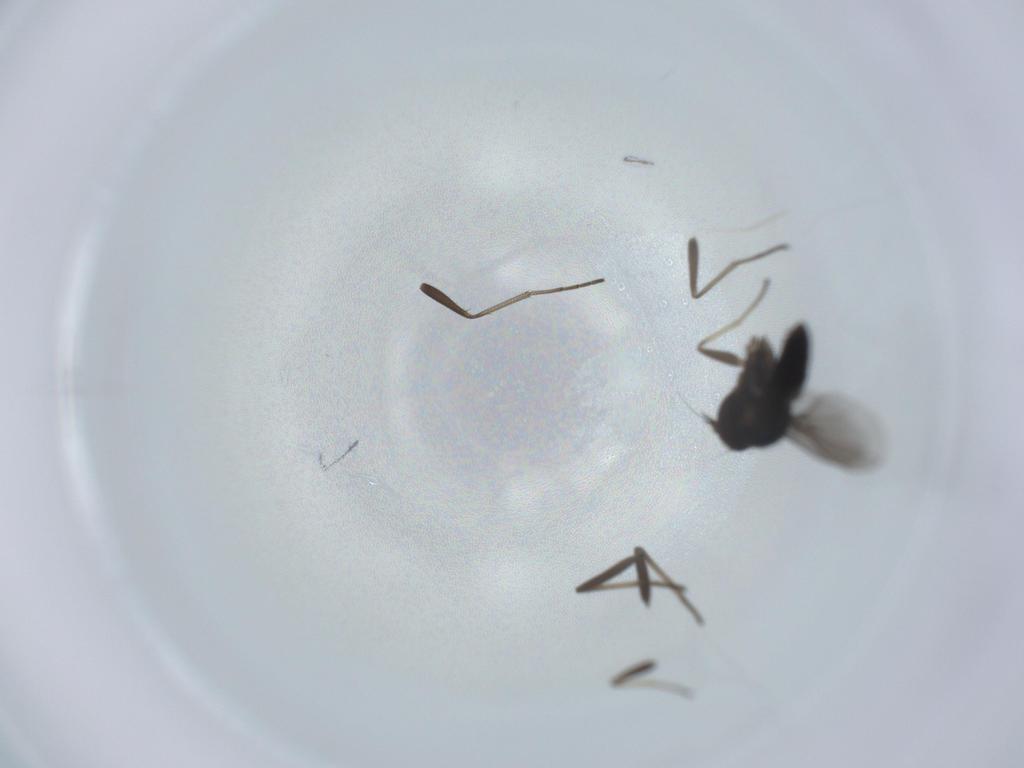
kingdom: Animalia
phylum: Arthropoda
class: Insecta
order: Diptera
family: Dolichopodidae
